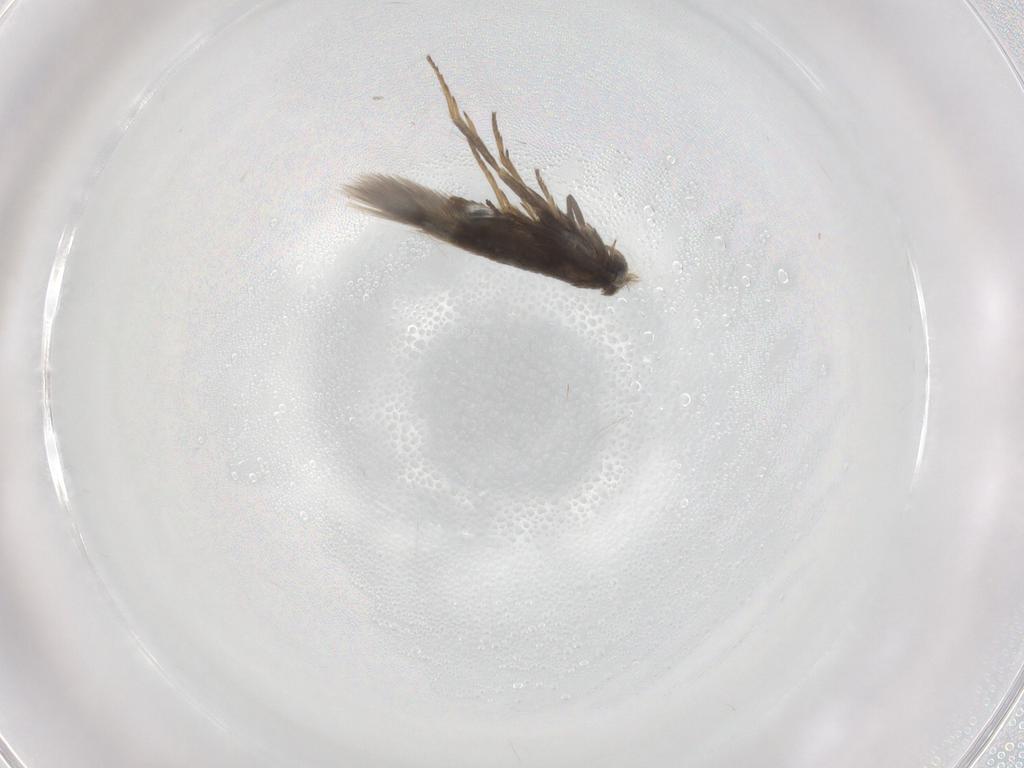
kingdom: Animalia
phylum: Arthropoda
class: Insecta
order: Lepidoptera
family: Nepticulidae
